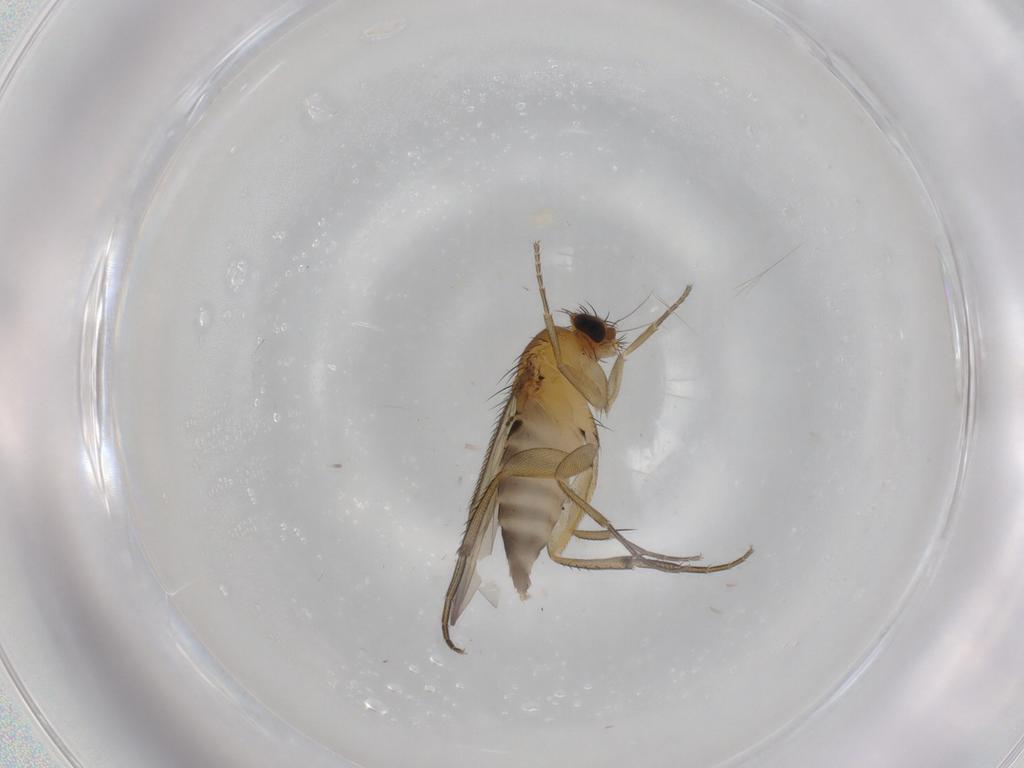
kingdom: Animalia
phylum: Arthropoda
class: Insecta
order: Diptera
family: Phoridae
